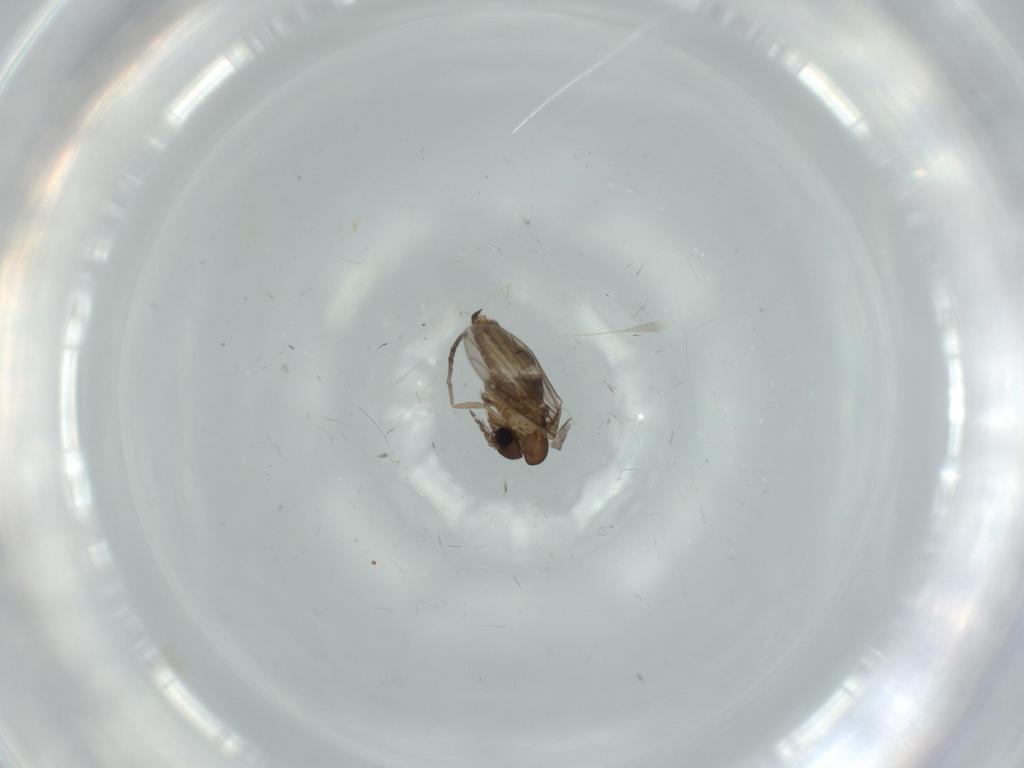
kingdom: Animalia
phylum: Arthropoda
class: Insecta
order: Diptera
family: Psychodidae
